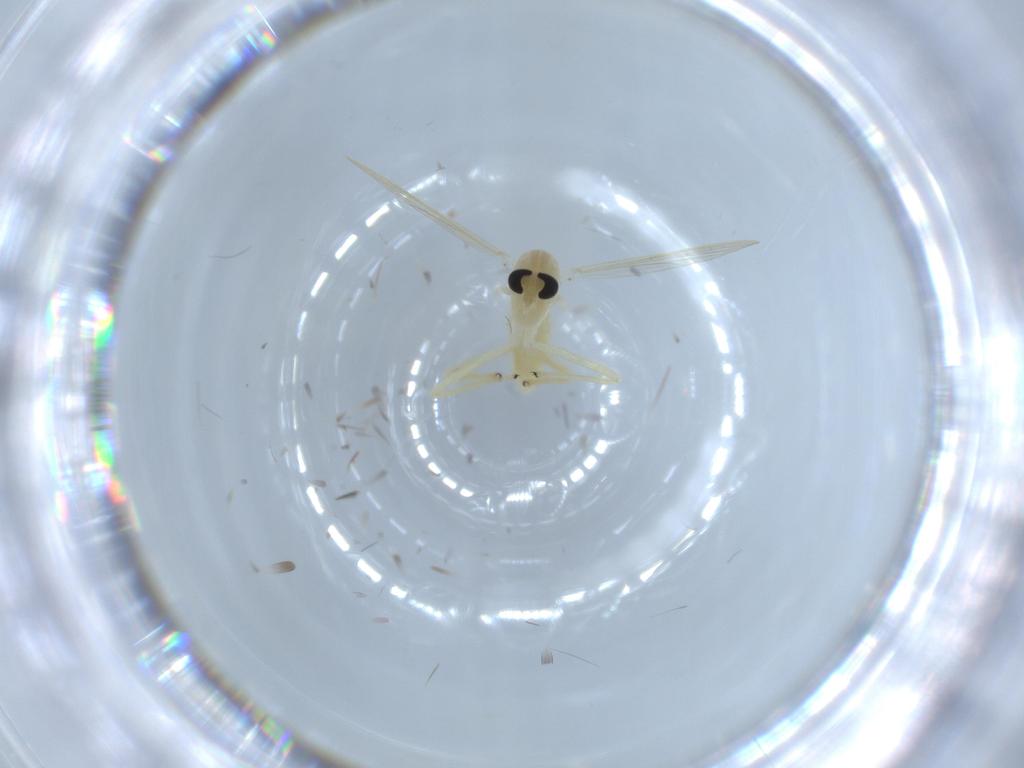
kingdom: Animalia
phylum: Arthropoda
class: Insecta
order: Diptera
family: Chironomidae
